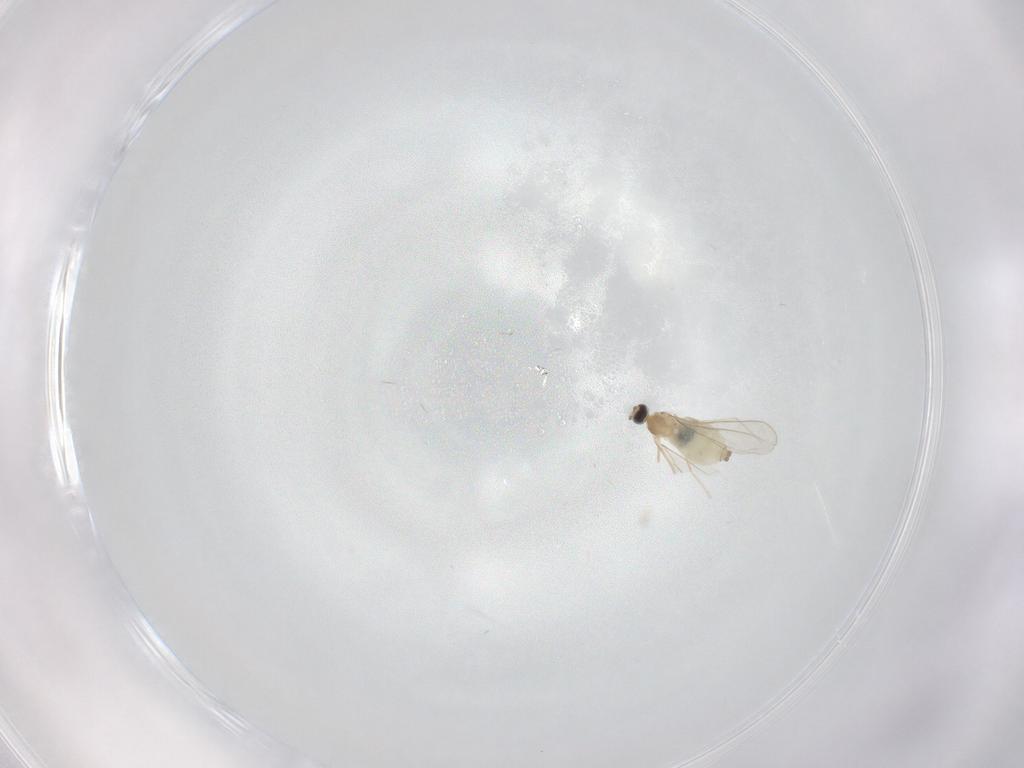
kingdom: Animalia
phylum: Arthropoda
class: Insecta
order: Diptera
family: Cecidomyiidae
